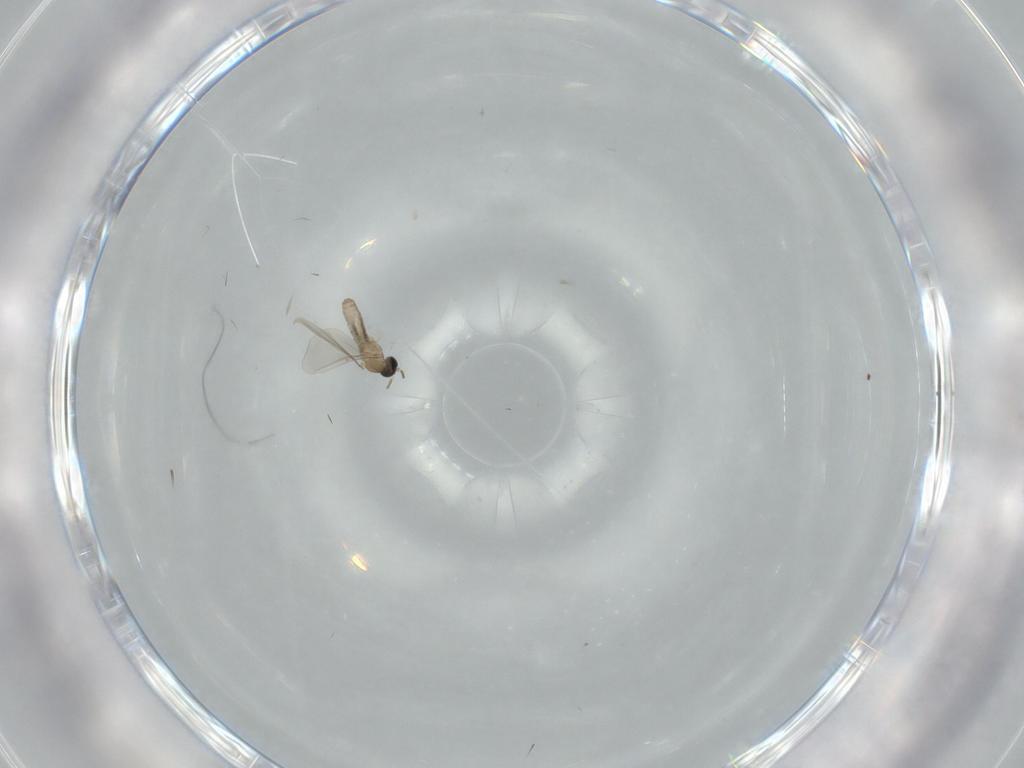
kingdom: Animalia
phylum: Arthropoda
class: Insecta
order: Diptera
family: Cecidomyiidae
